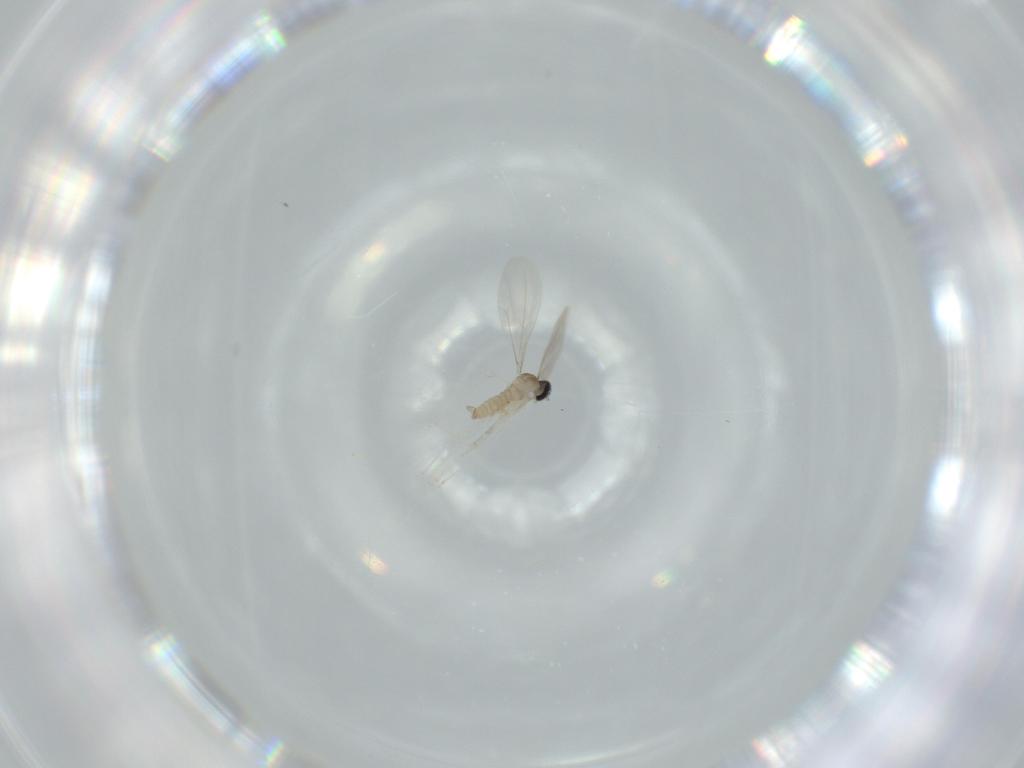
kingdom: Animalia
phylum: Arthropoda
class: Insecta
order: Diptera
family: Cecidomyiidae
